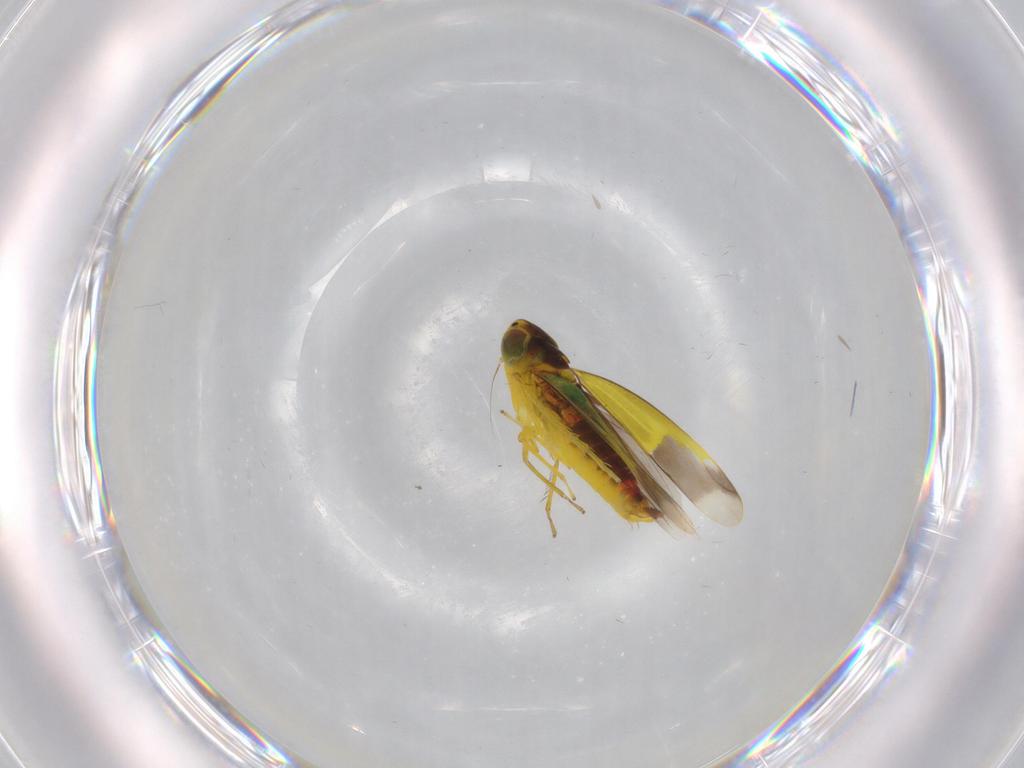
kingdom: Animalia
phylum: Arthropoda
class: Insecta
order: Hemiptera
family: Cicadellidae
